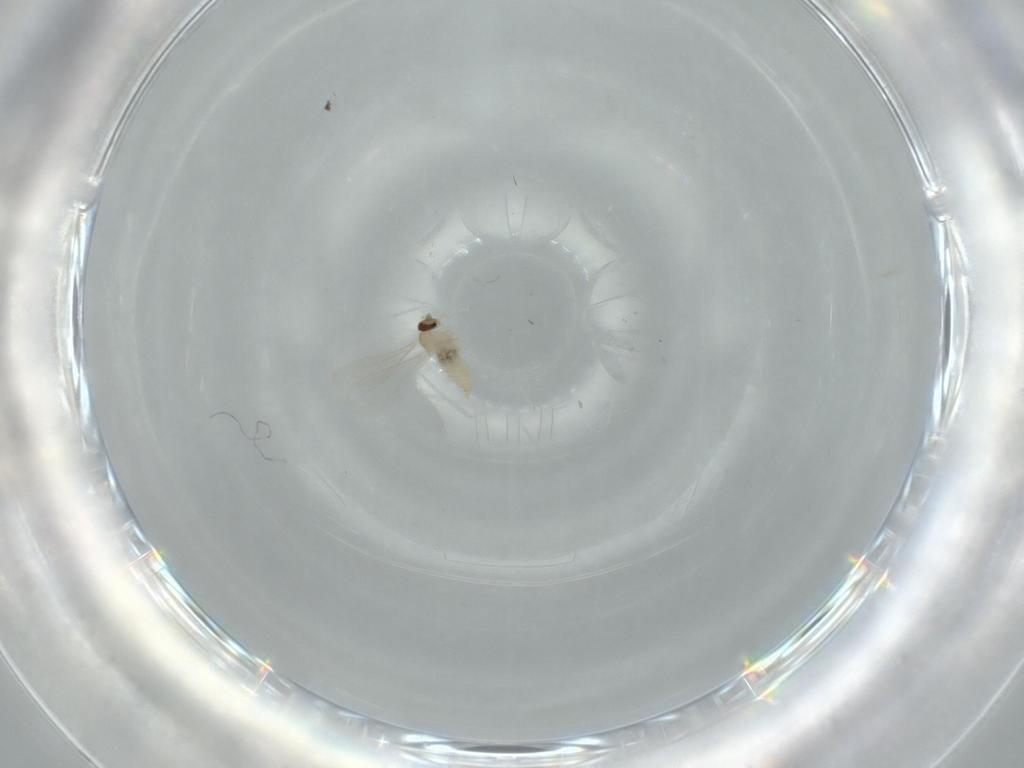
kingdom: Animalia
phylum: Arthropoda
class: Insecta
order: Diptera
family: Cecidomyiidae
